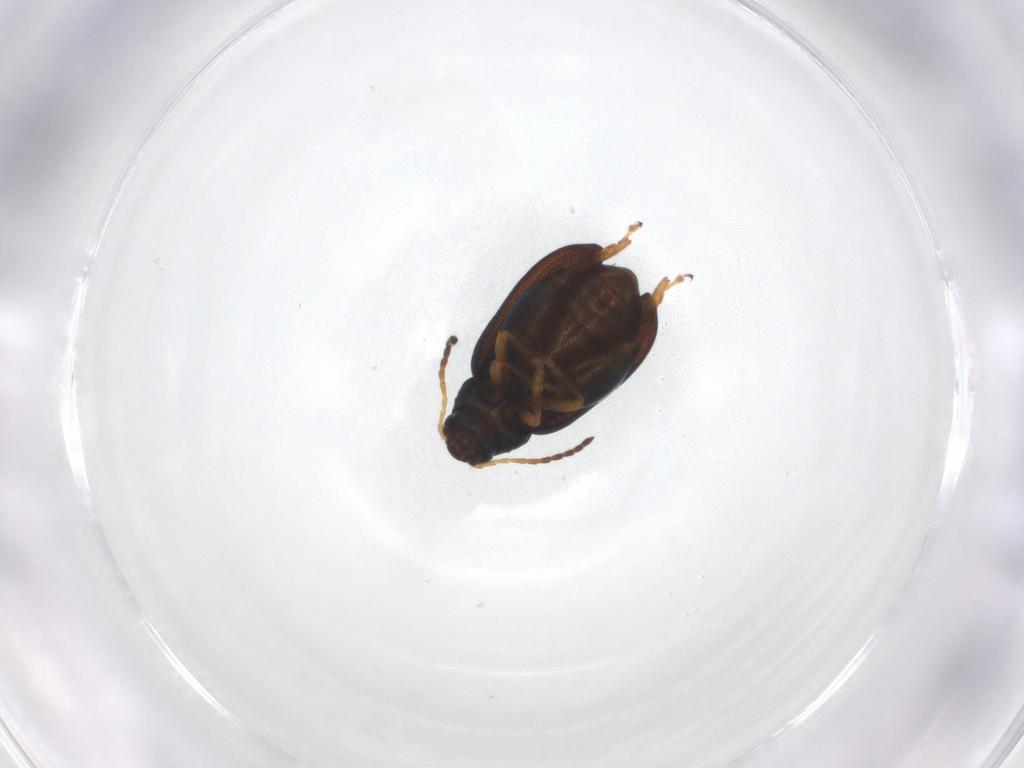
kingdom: Animalia
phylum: Arthropoda
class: Insecta
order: Coleoptera
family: Chrysomelidae
